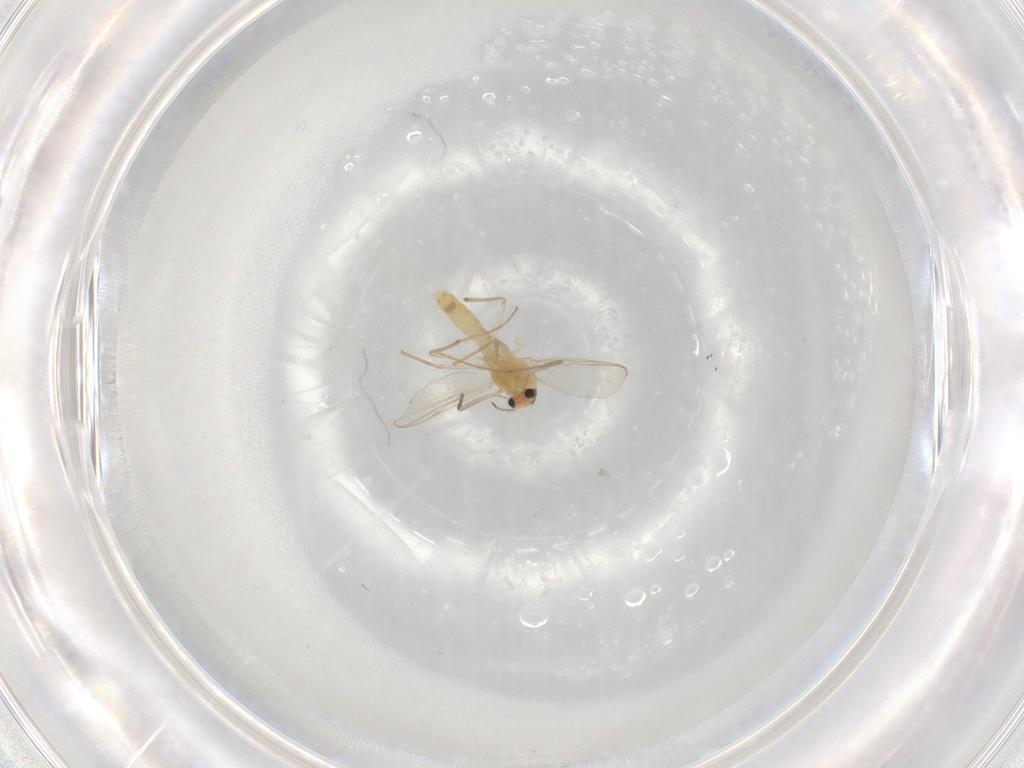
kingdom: Animalia
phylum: Arthropoda
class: Insecta
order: Diptera
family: Chironomidae
